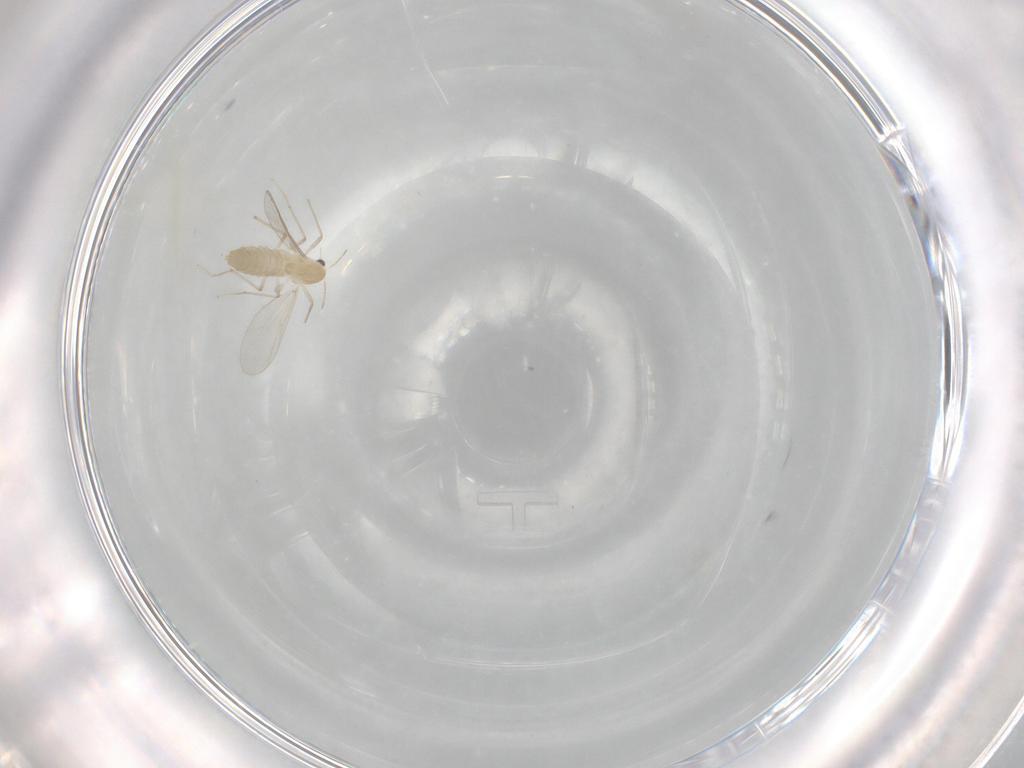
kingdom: Animalia
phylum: Arthropoda
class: Insecta
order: Diptera
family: Chironomidae
